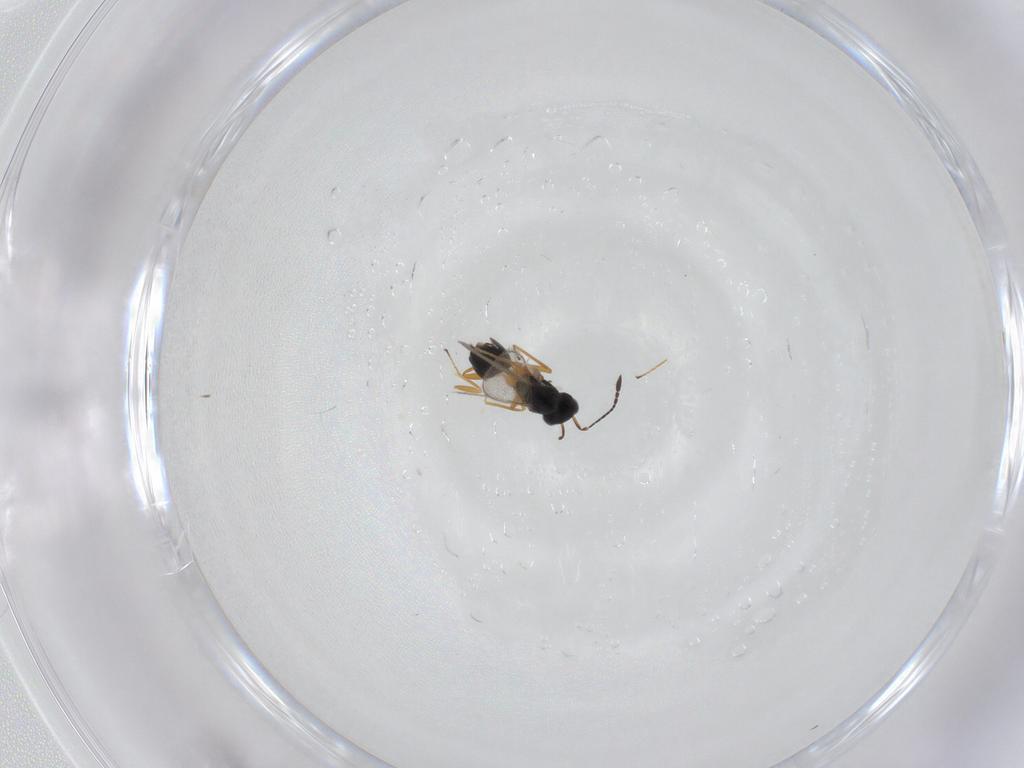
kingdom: Animalia
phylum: Arthropoda
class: Insecta
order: Hymenoptera
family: Mymaridae
